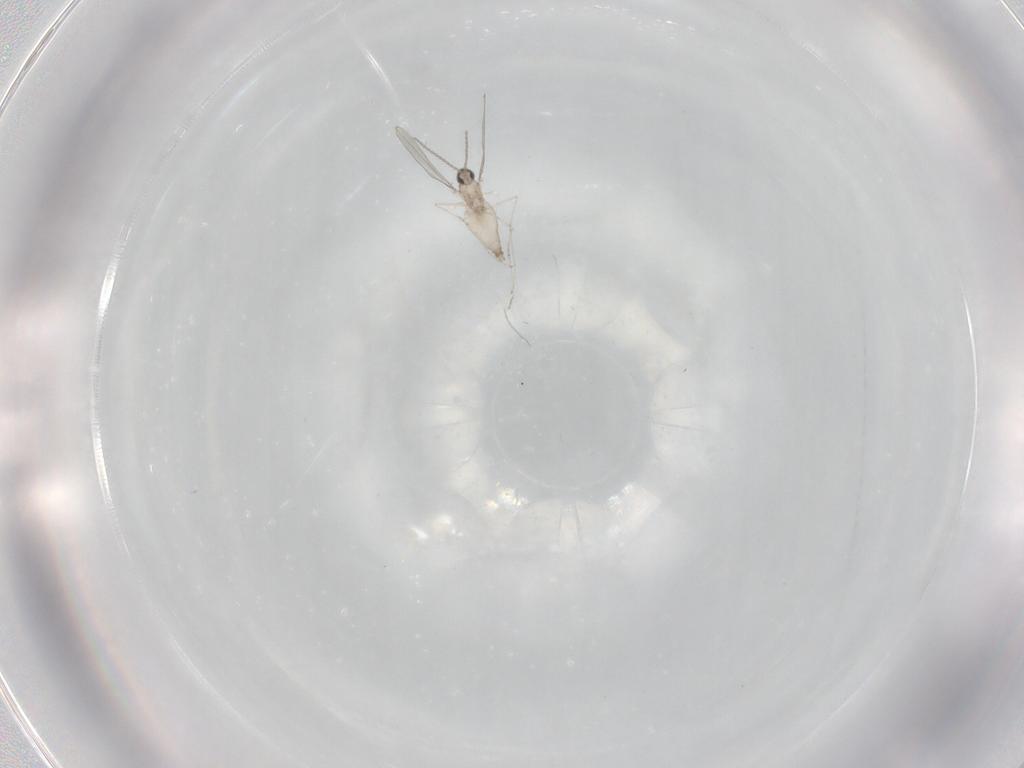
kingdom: Animalia
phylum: Arthropoda
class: Insecta
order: Diptera
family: Cecidomyiidae
